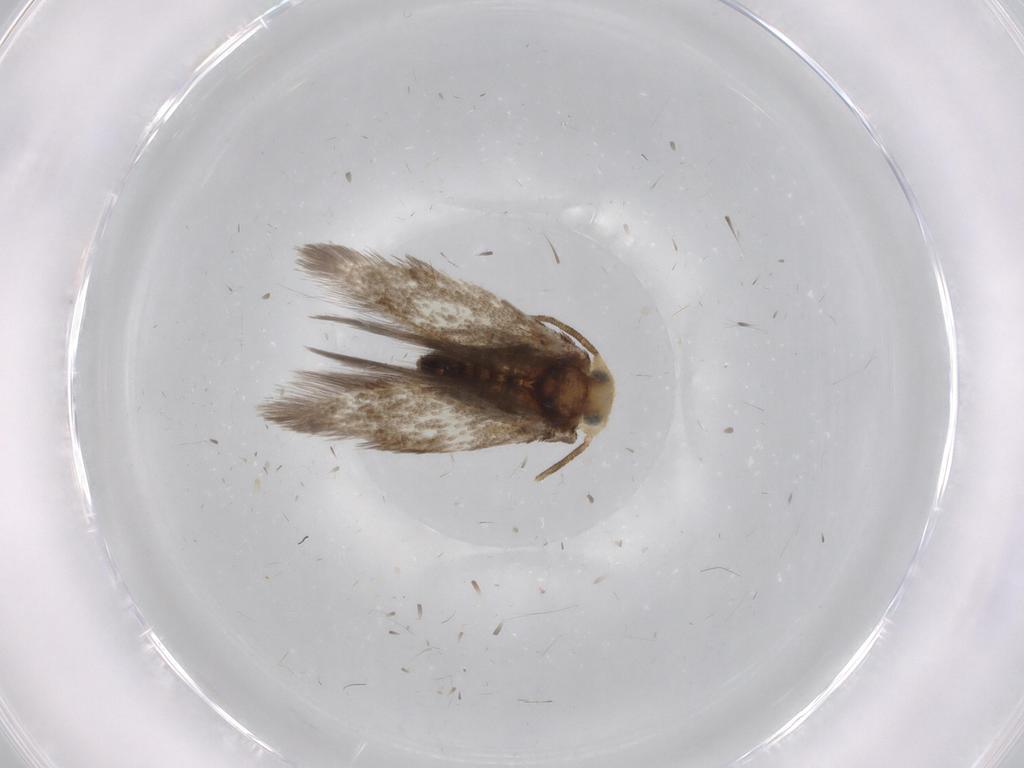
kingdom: Animalia
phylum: Arthropoda
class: Insecta
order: Lepidoptera
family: Nepticulidae
